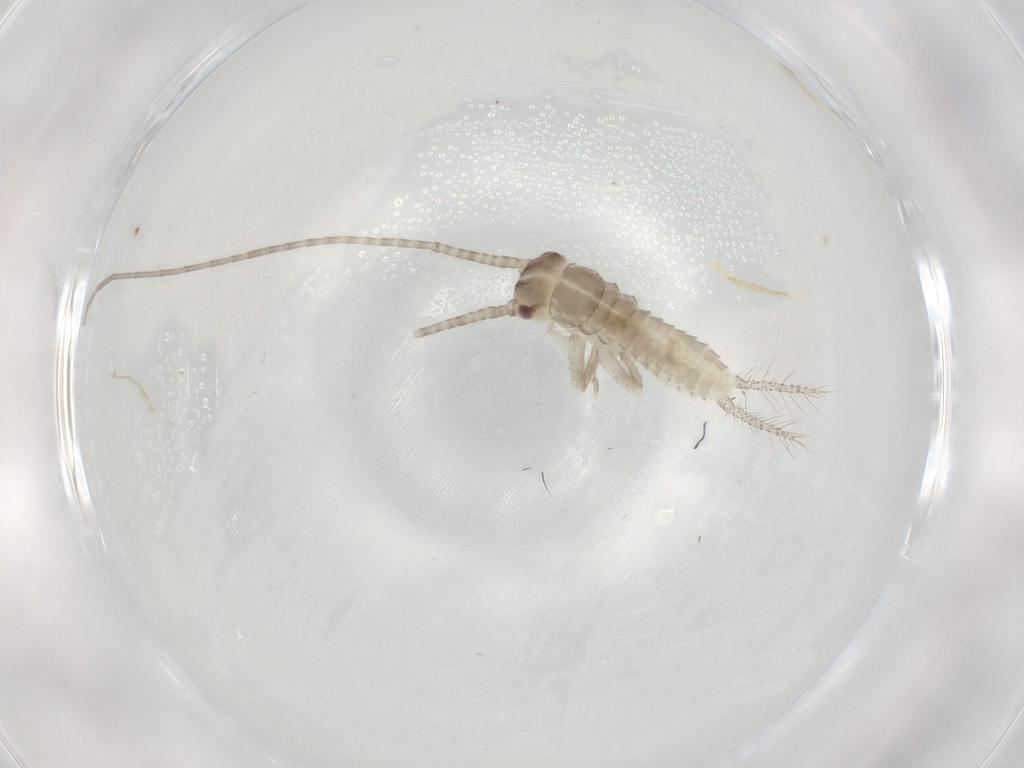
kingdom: Animalia
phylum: Arthropoda
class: Insecta
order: Orthoptera
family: Gryllidae
